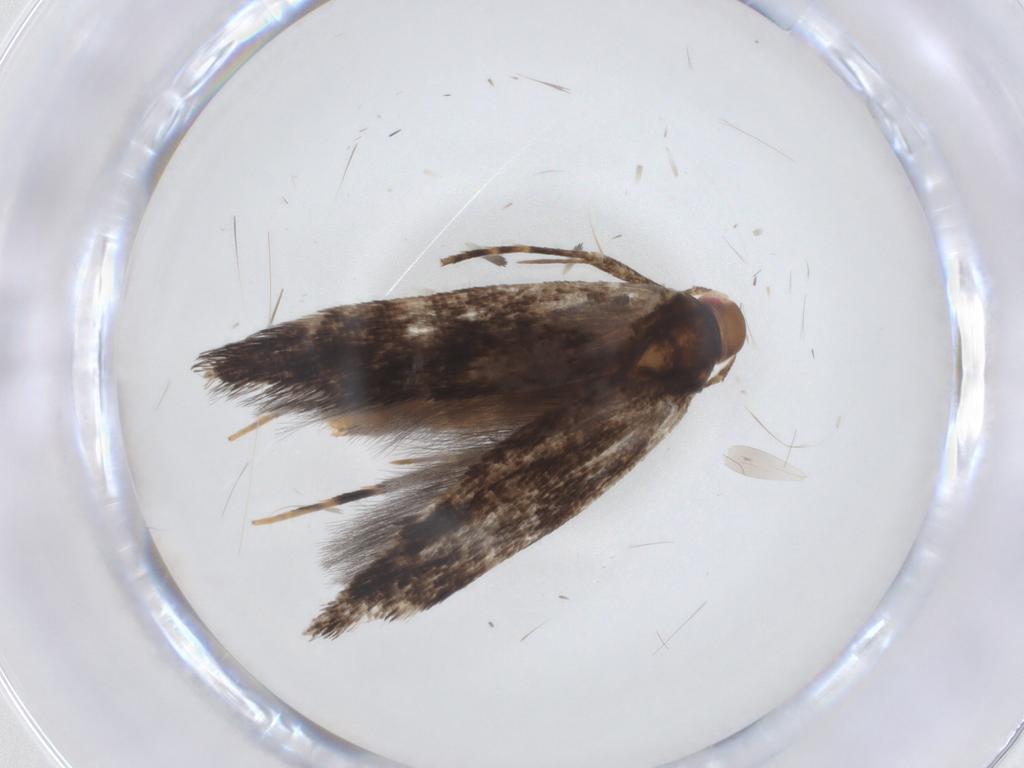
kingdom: Animalia
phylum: Arthropoda
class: Insecta
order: Lepidoptera
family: Cosmopterigidae
